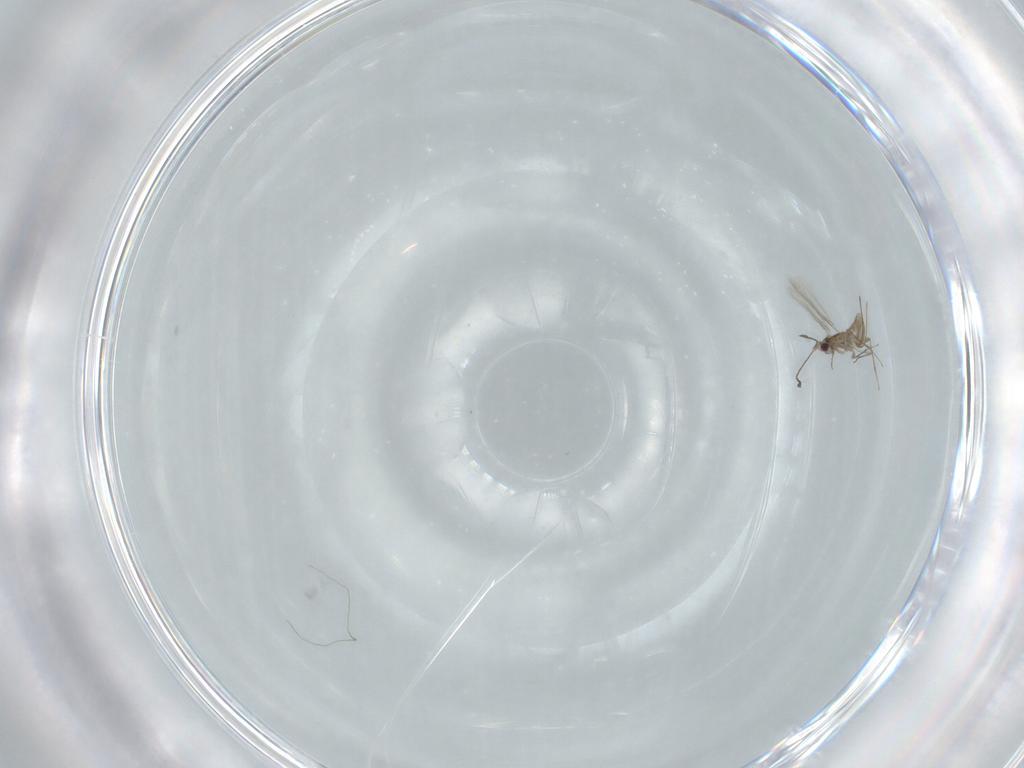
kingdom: Animalia
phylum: Arthropoda
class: Insecta
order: Hymenoptera
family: Mymaridae
